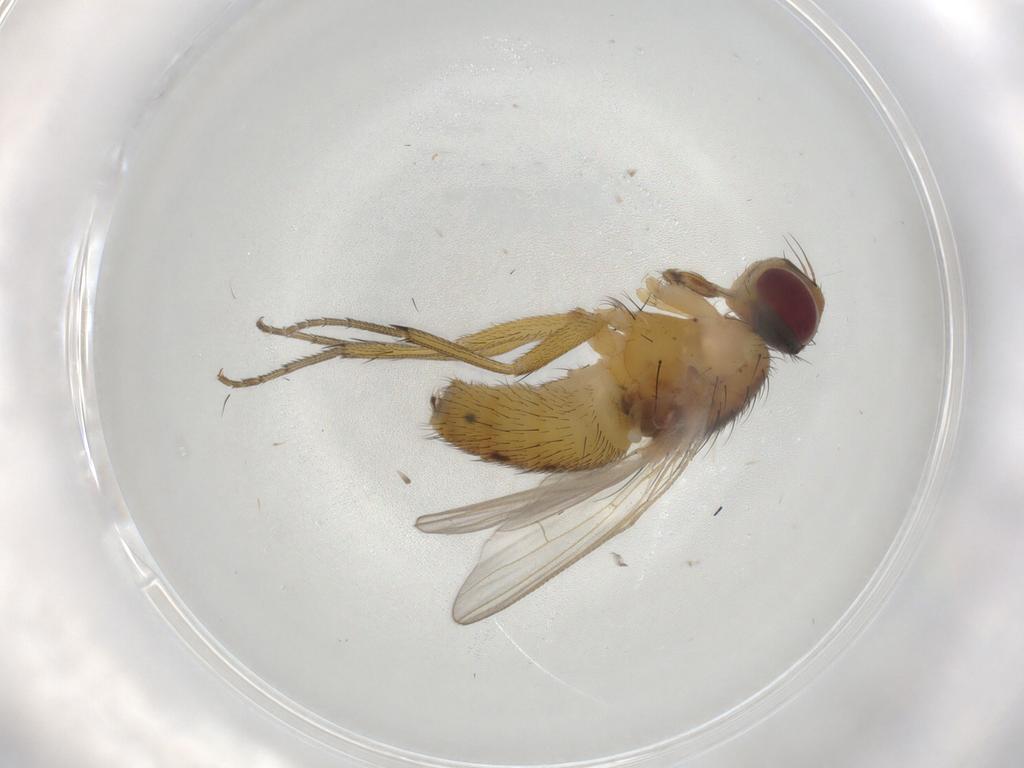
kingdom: Animalia
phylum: Arthropoda
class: Insecta
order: Diptera
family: Muscidae
